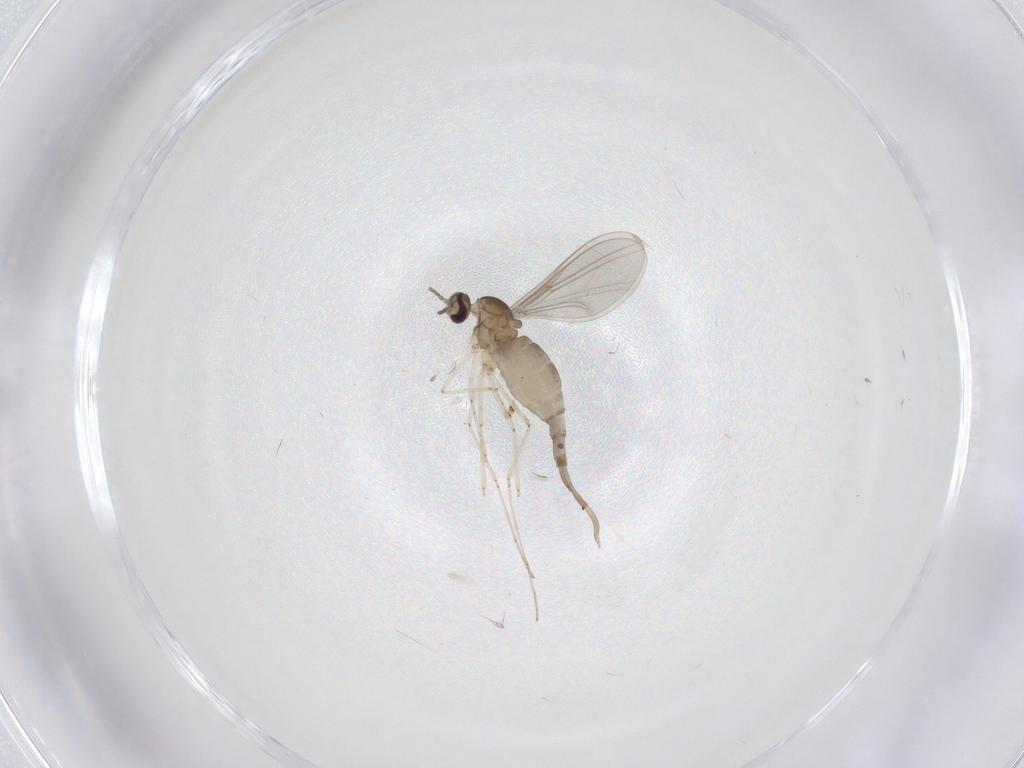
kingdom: Animalia
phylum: Arthropoda
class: Insecta
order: Diptera
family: Cecidomyiidae
